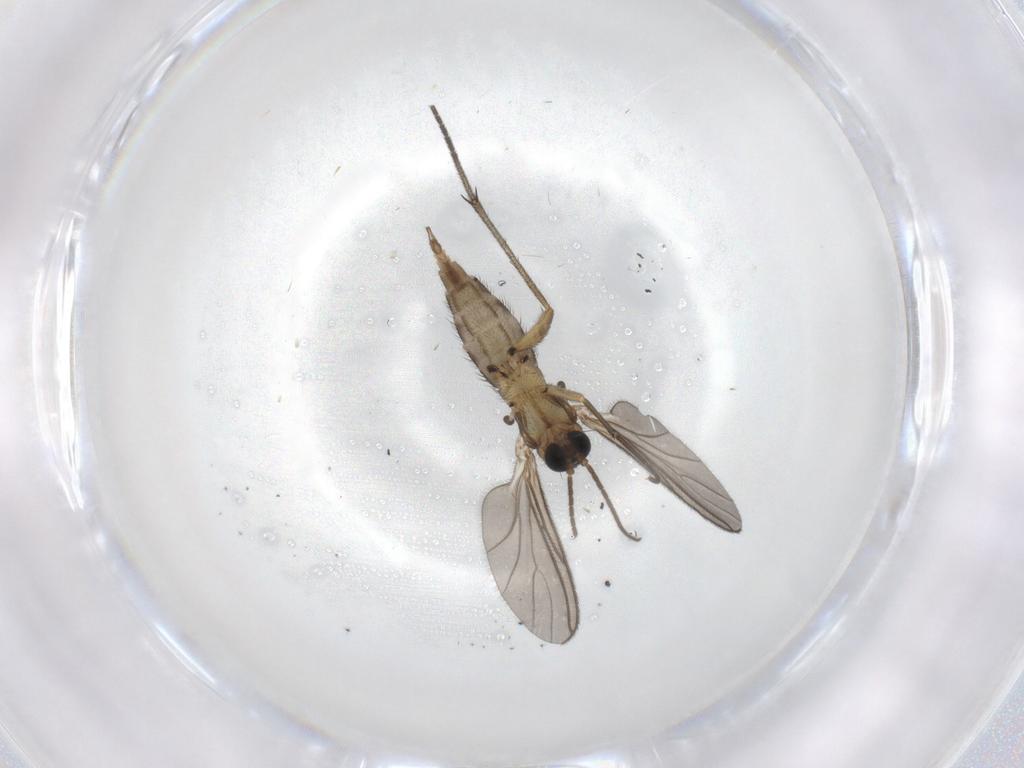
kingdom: Animalia
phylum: Arthropoda
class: Insecta
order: Diptera
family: Sciaridae
